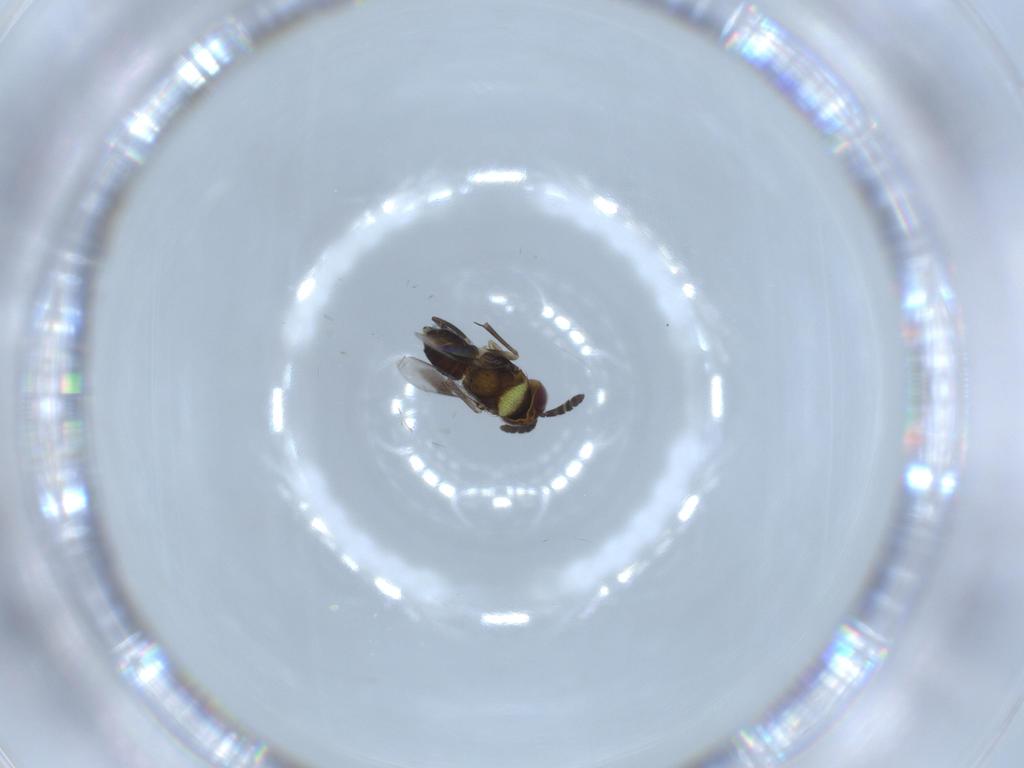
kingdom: Animalia
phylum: Arthropoda
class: Insecta
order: Hymenoptera
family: Aphelinidae
